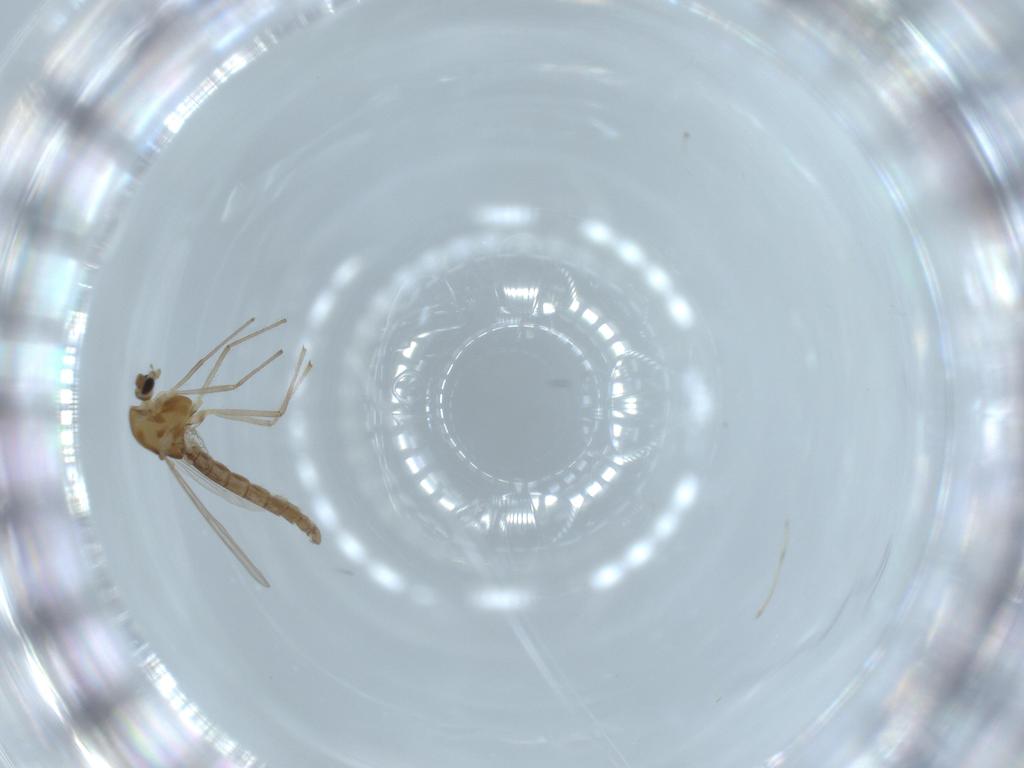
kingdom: Animalia
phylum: Arthropoda
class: Insecta
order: Diptera
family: Chironomidae
